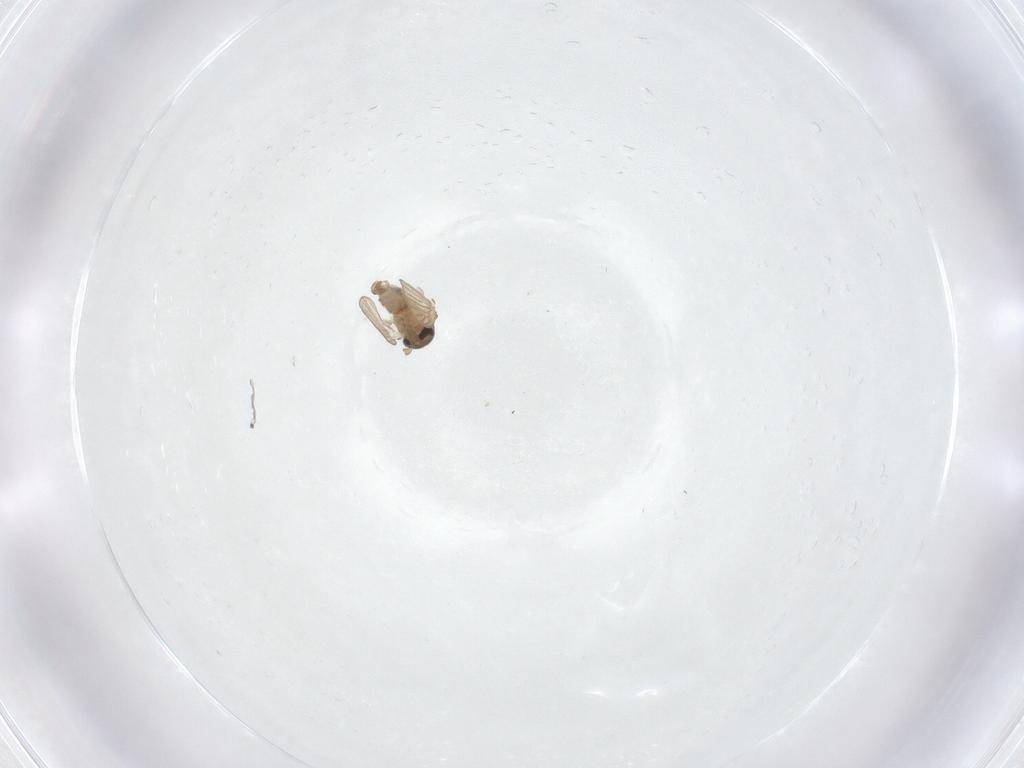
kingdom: Animalia
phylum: Arthropoda
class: Insecta
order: Diptera
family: Psychodidae
